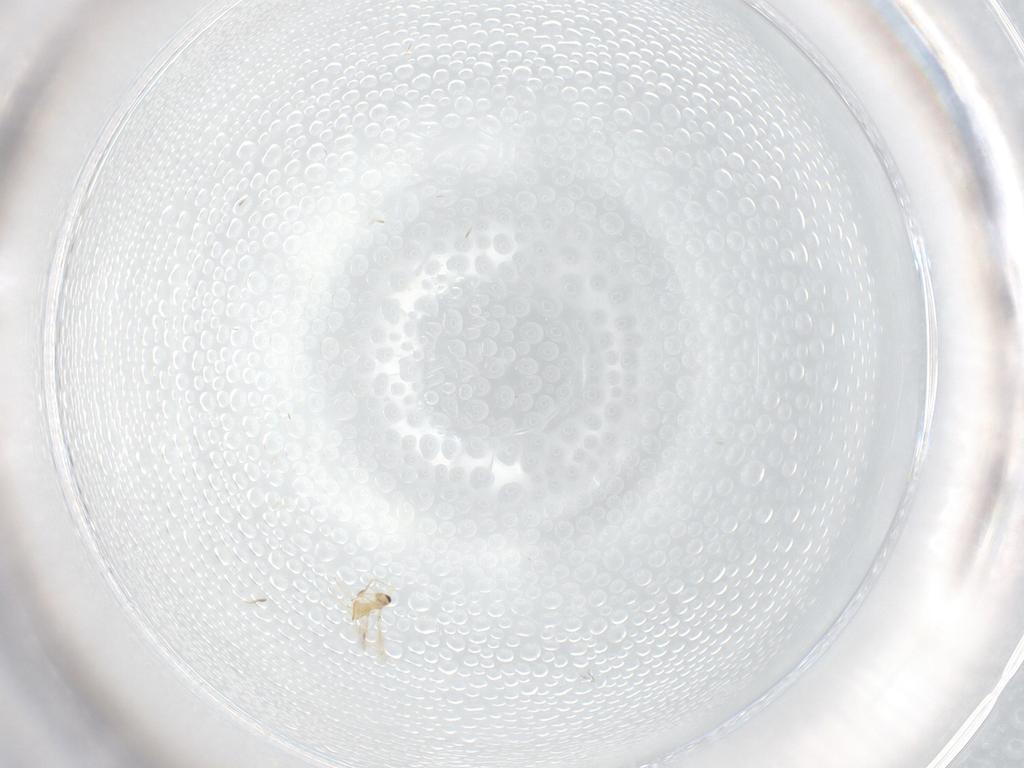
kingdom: Animalia
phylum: Arthropoda
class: Insecta
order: Hymenoptera
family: Mymaridae
